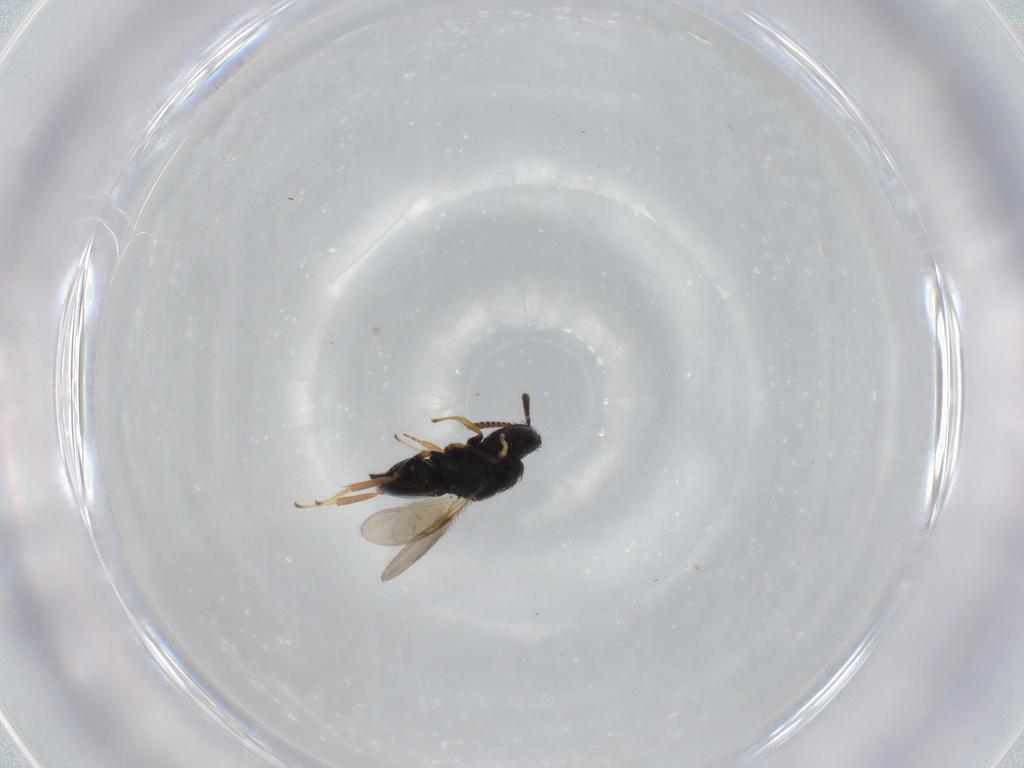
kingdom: Animalia
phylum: Arthropoda
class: Insecta
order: Hymenoptera
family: Pteromalidae
